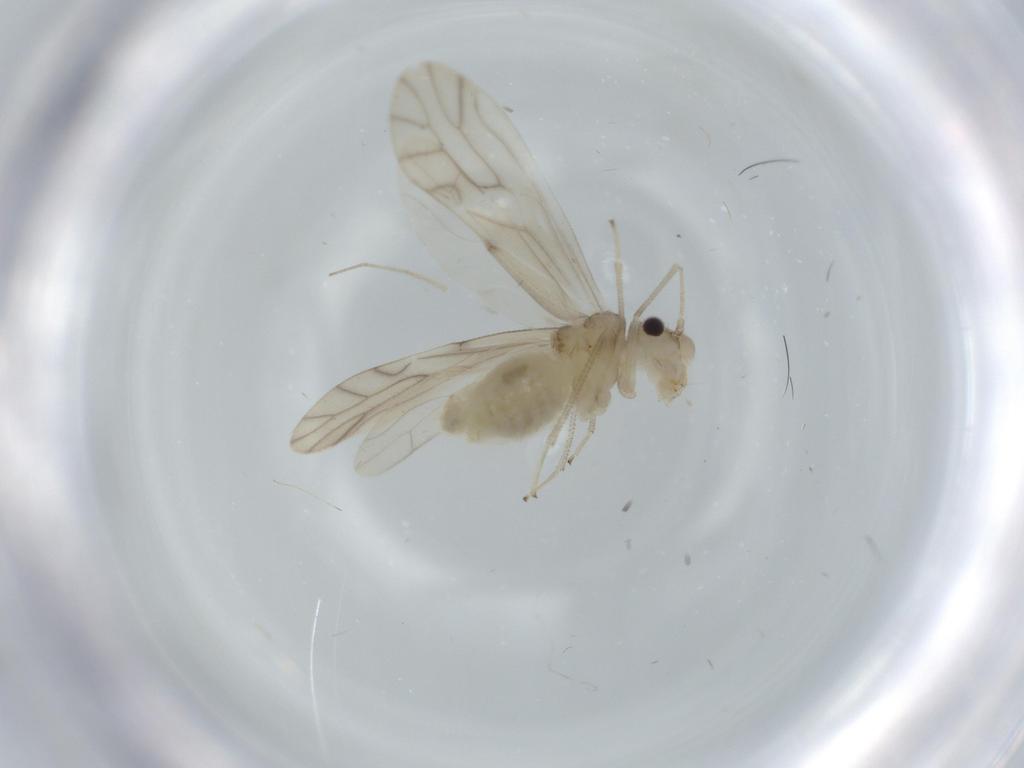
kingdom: Animalia
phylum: Arthropoda
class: Insecta
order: Psocodea
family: Caeciliusidae
